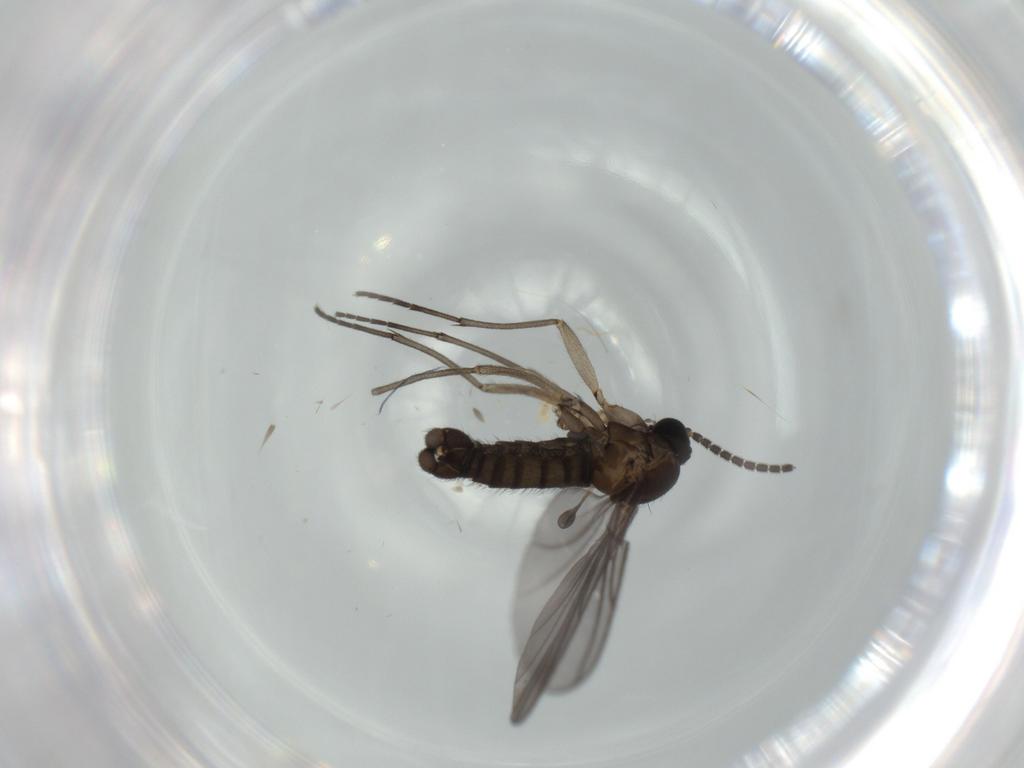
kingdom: Animalia
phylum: Arthropoda
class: Insecta
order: Diptera
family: Sciaridae
